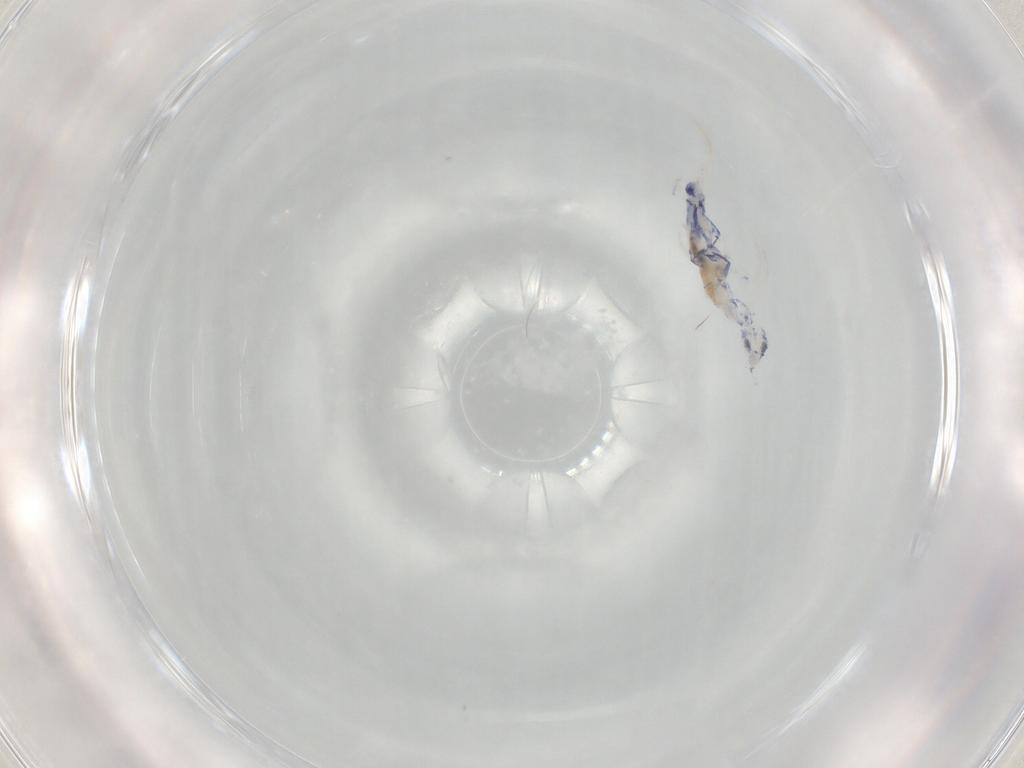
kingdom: Animalia
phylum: Arthropoda
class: Collembola
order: Entomobryomorpha
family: Entomobryidae
